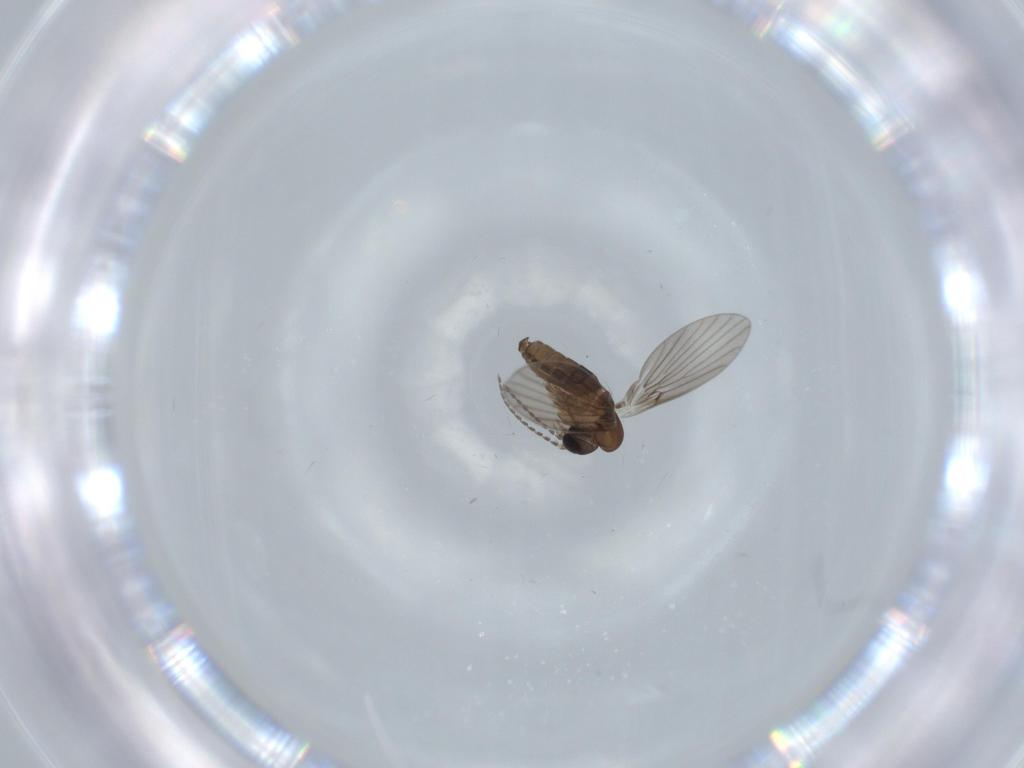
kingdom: Animalia
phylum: Arthropoda
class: Insecta
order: Diptera
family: Psychodidae
